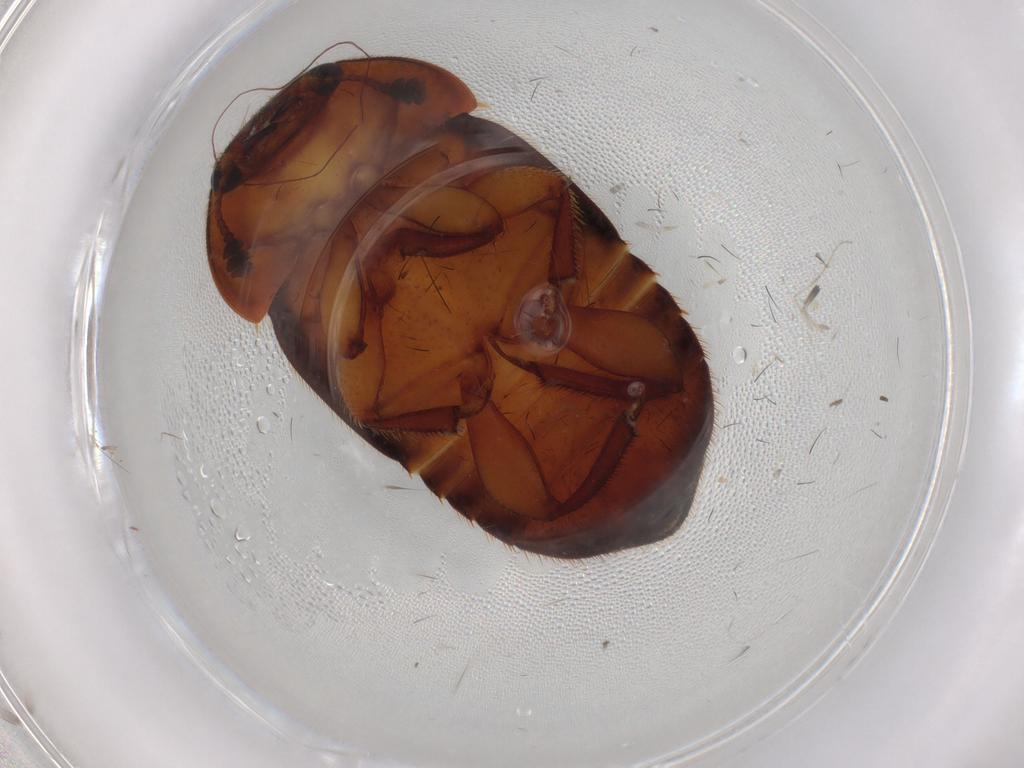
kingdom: Animalia
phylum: Arthropoda
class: Insecta
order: Coleoptera
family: Nitidulidae
